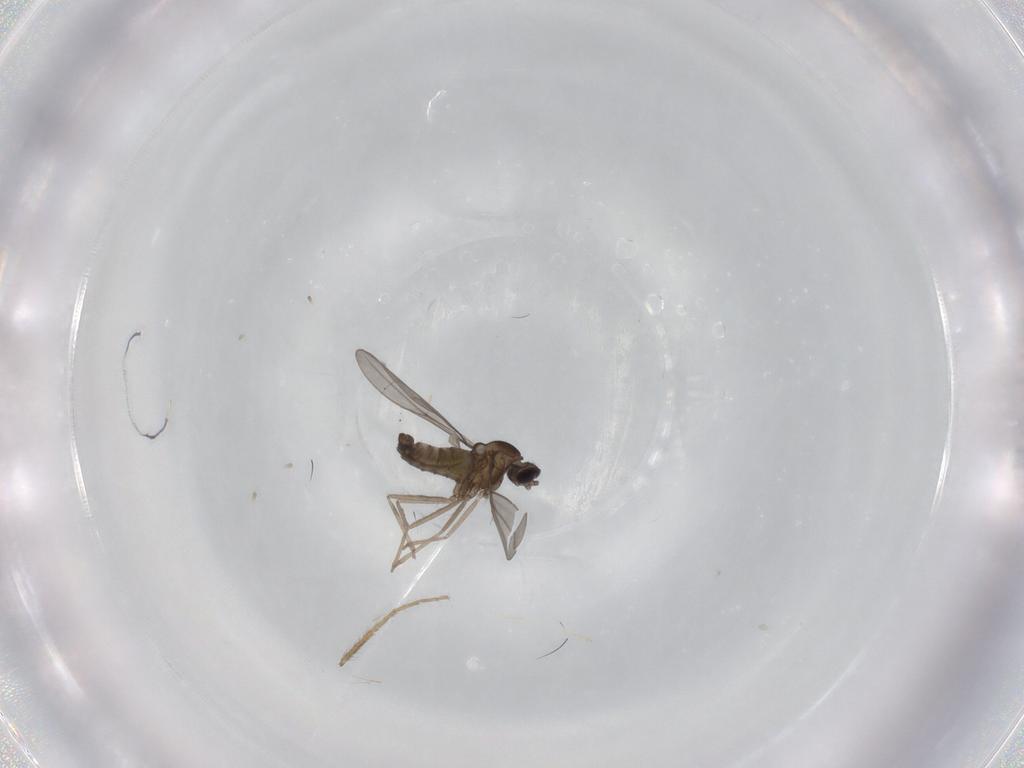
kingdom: Animalia
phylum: Arthropoda
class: Insecta
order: Diptera
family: Cecidomyiidae
